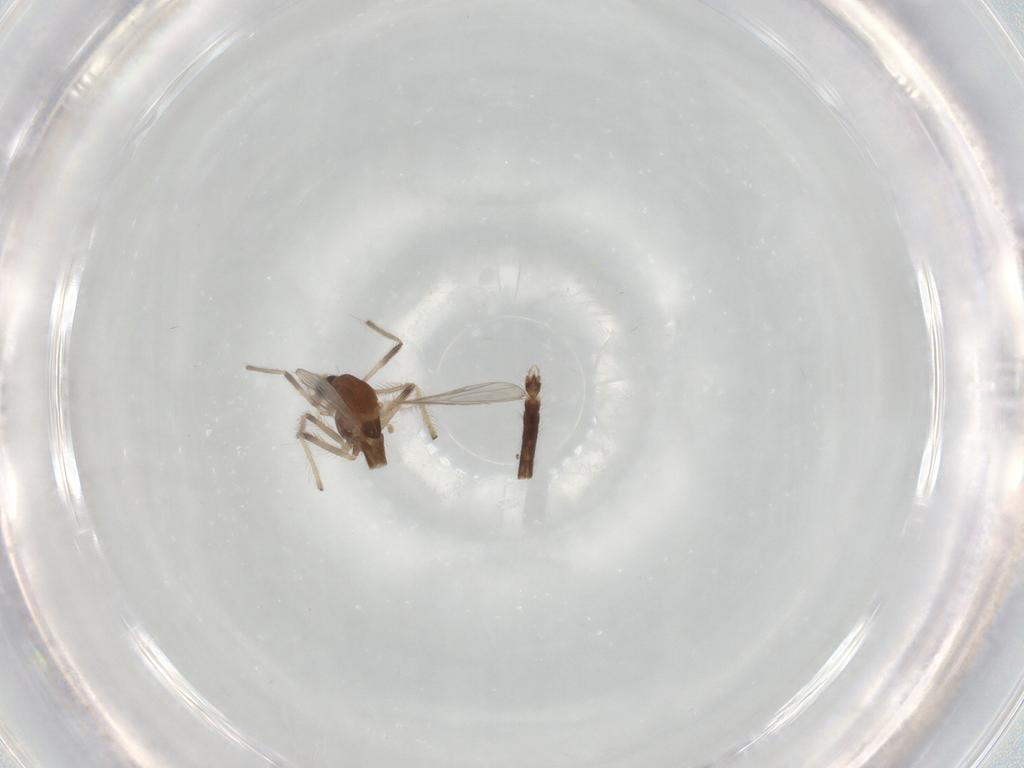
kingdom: Animalia
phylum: Arthropoda
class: Insecta
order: Diptera
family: Chironomidae
